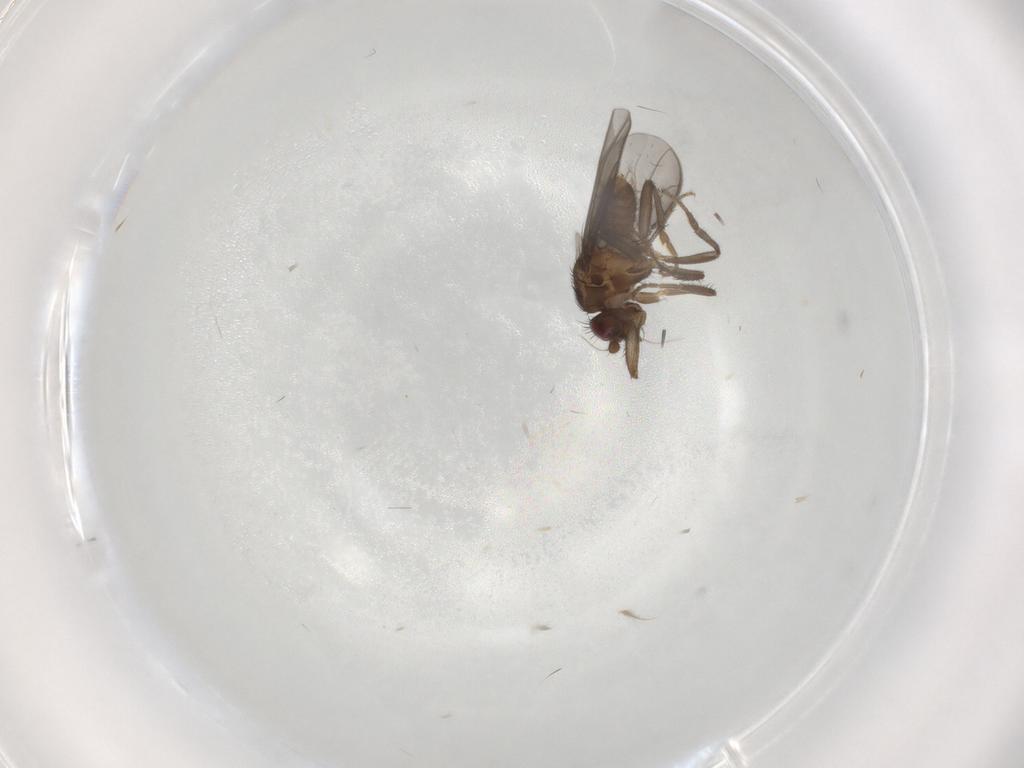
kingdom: Animalia
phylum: Arthropoda
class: Insecta
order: Diptera
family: Sphaeroceridae
